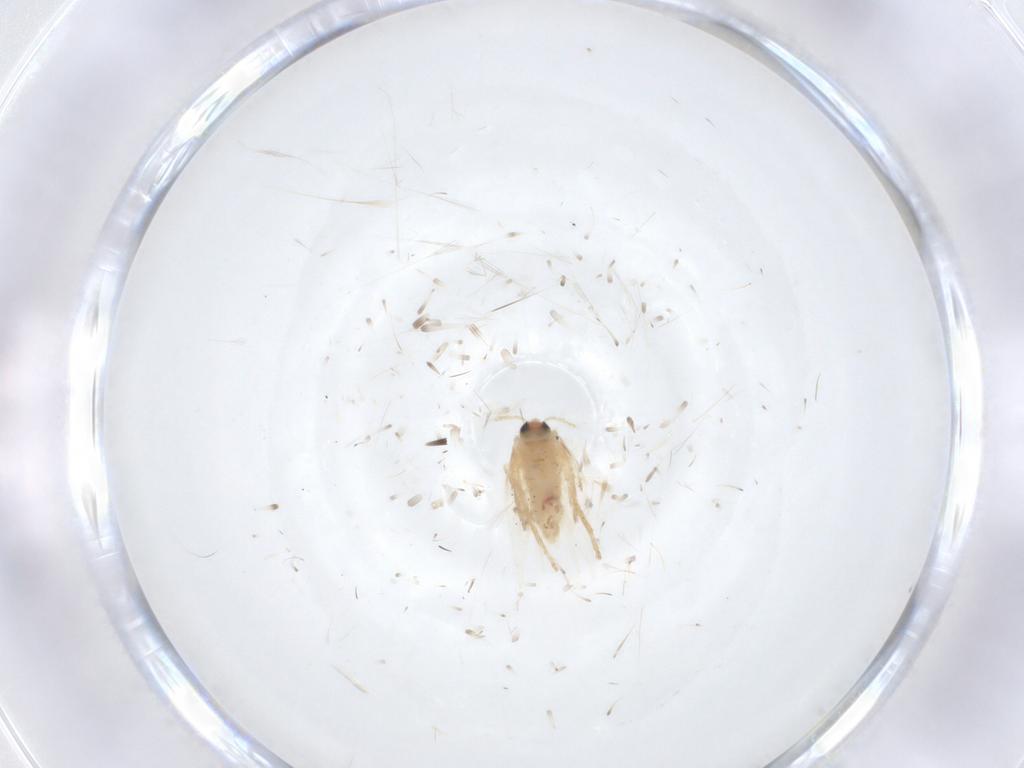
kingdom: Animalia
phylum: Arthropoda
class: Insecta
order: Lepidoptera
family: Nepticulidae
